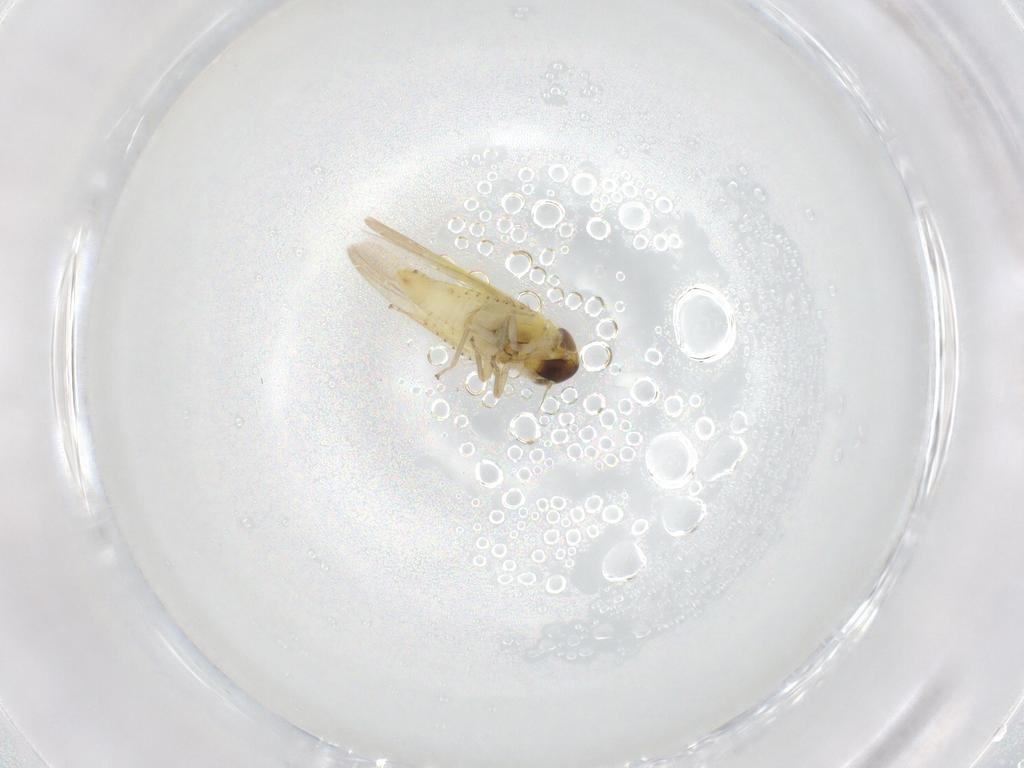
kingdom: Animalia
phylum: Arthropoda
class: Insecta
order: Hemiptera
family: Cicadellidae
